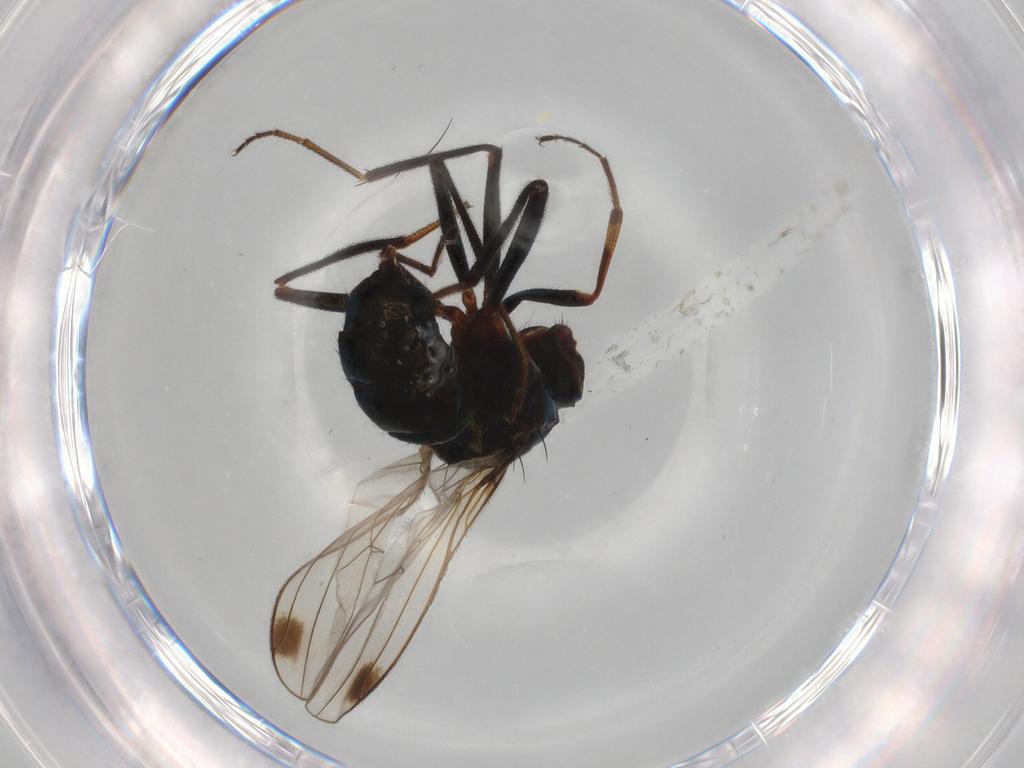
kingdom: Animalia
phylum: Arthropoda
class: Insecta
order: Diptera
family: Sepsidae
